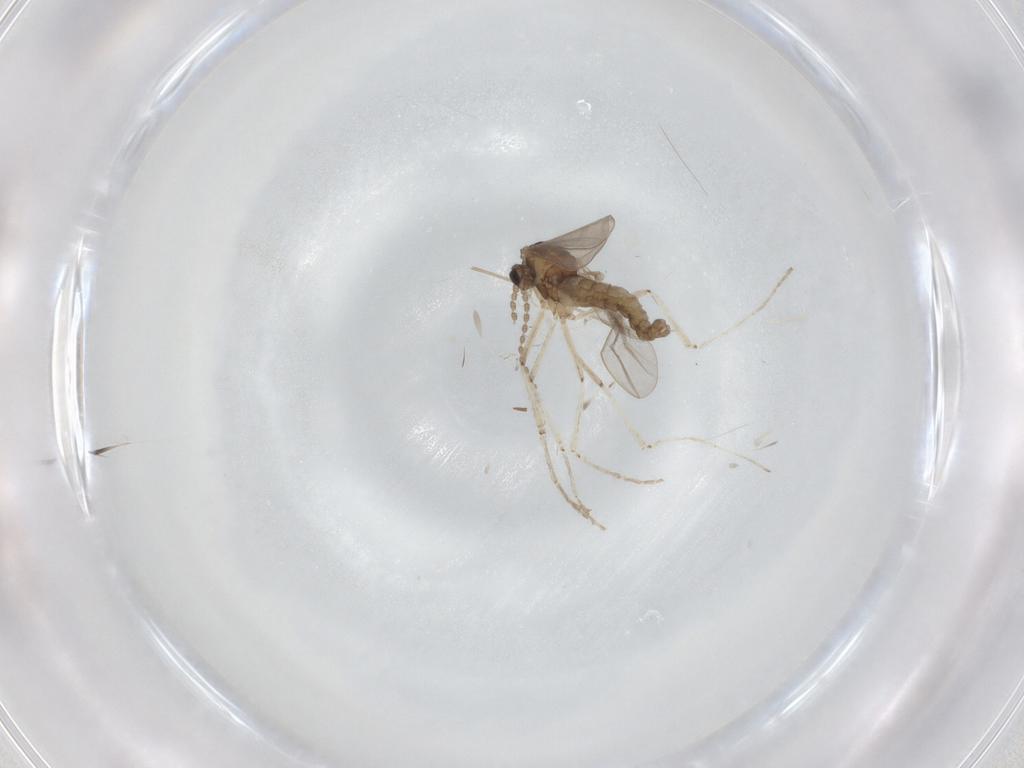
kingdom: Animalia
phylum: Arthropoda
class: Insecta
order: Diptera
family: Cecidomyiidae
